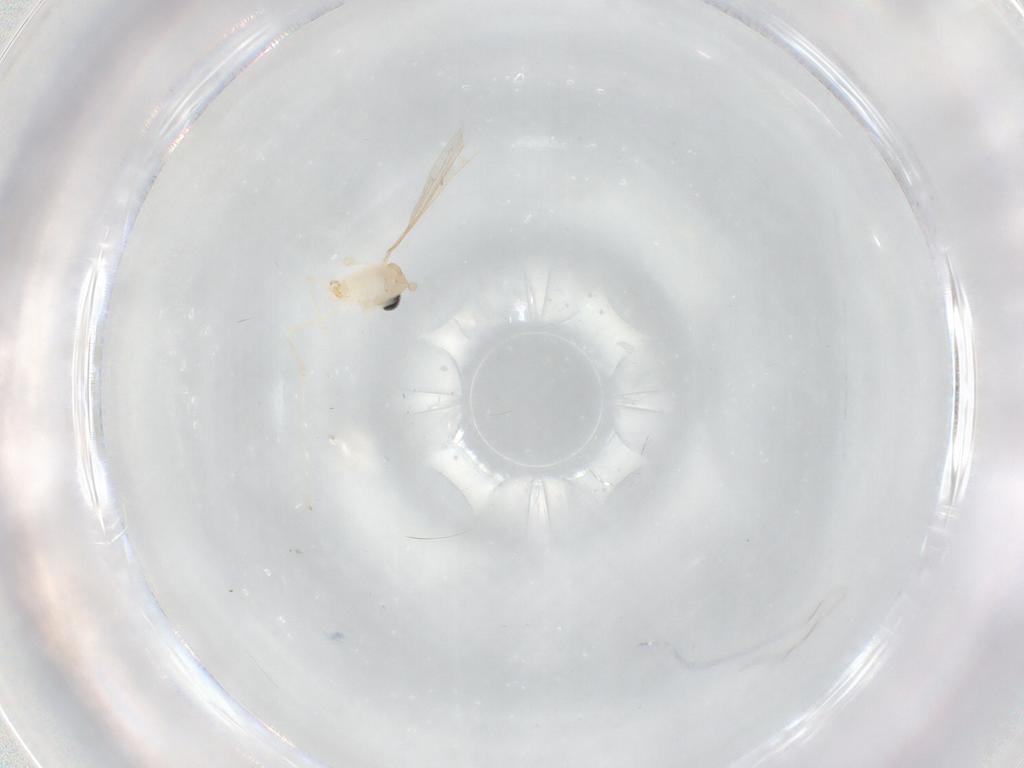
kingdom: Animalia
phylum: Arthropoda
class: Insecta
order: Diptera
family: Cecidomyiidae
